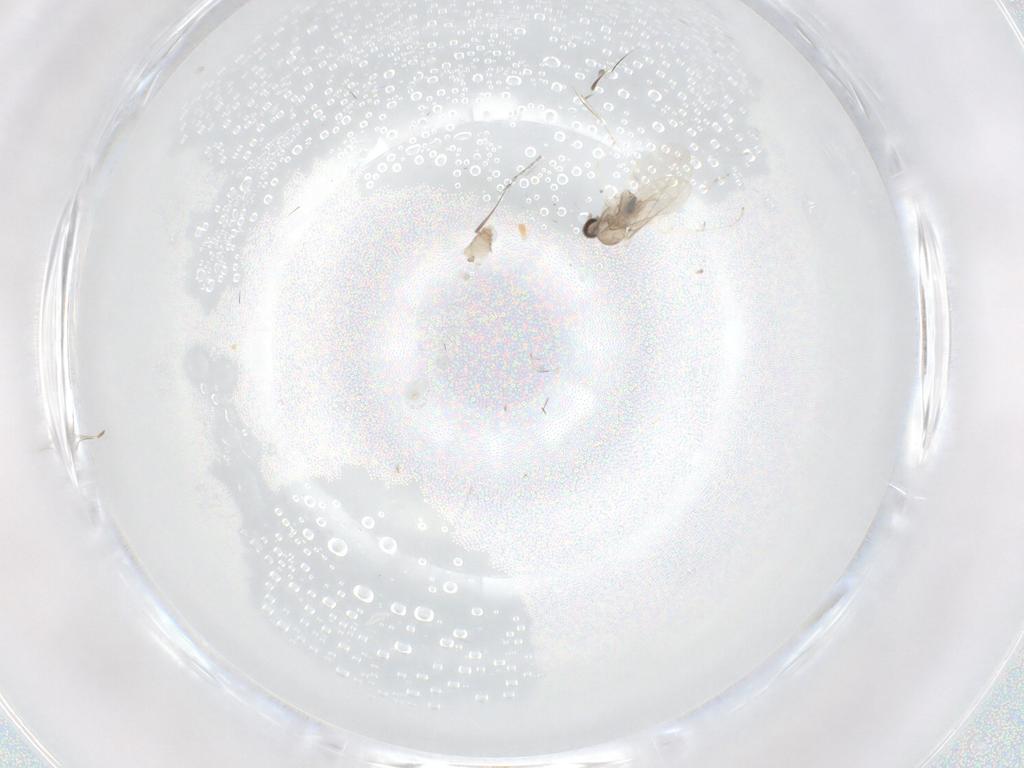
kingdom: Animalia
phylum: Arthropoda
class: Insecta
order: Diptera
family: Cecidomyiidae
